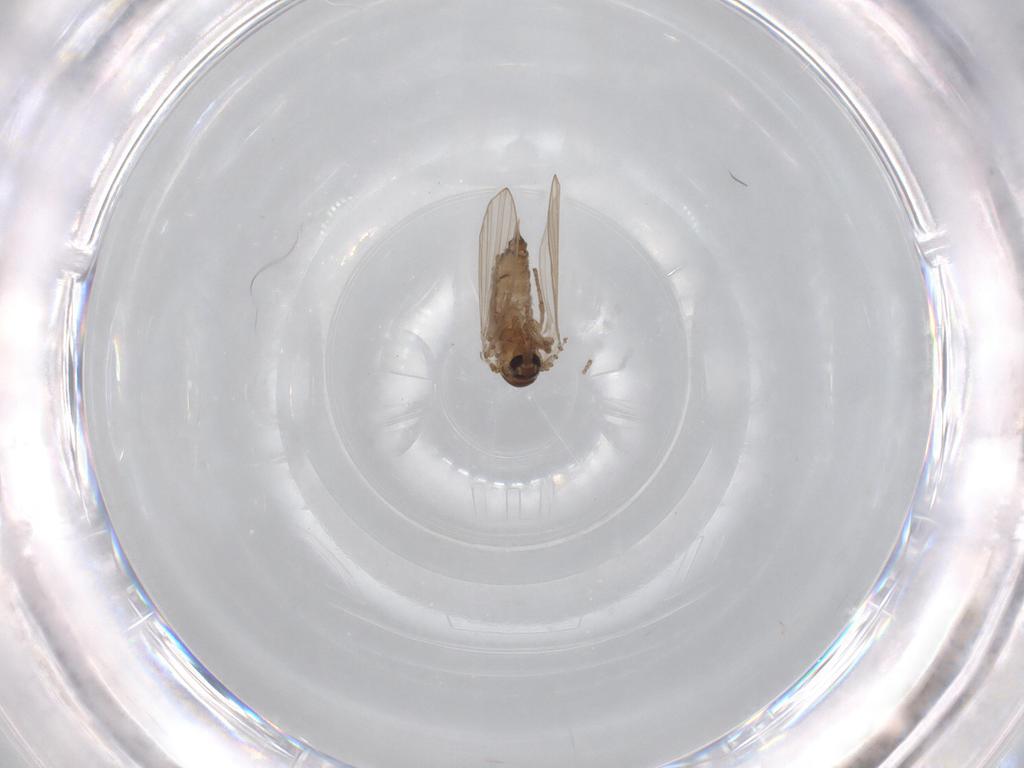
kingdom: Animalia
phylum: Arthropoda
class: Insecta
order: Diptera
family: Psychodidae
